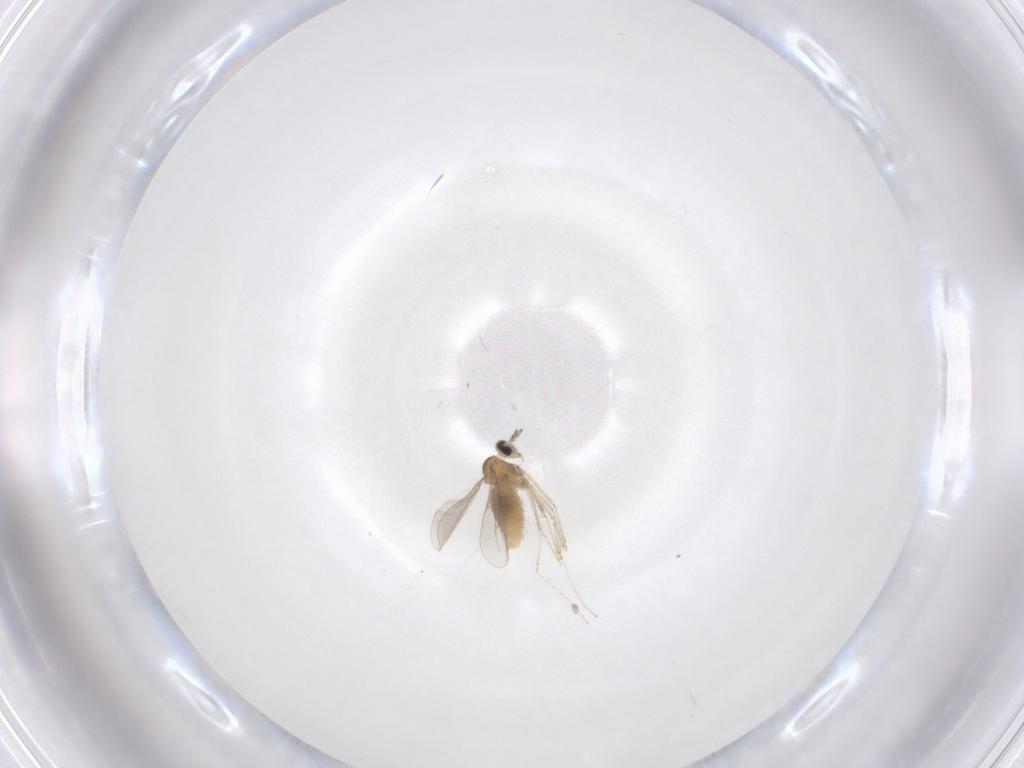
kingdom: Animalia
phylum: Arthropoda
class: Insecta
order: Diptera
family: Cecidomyiidae
